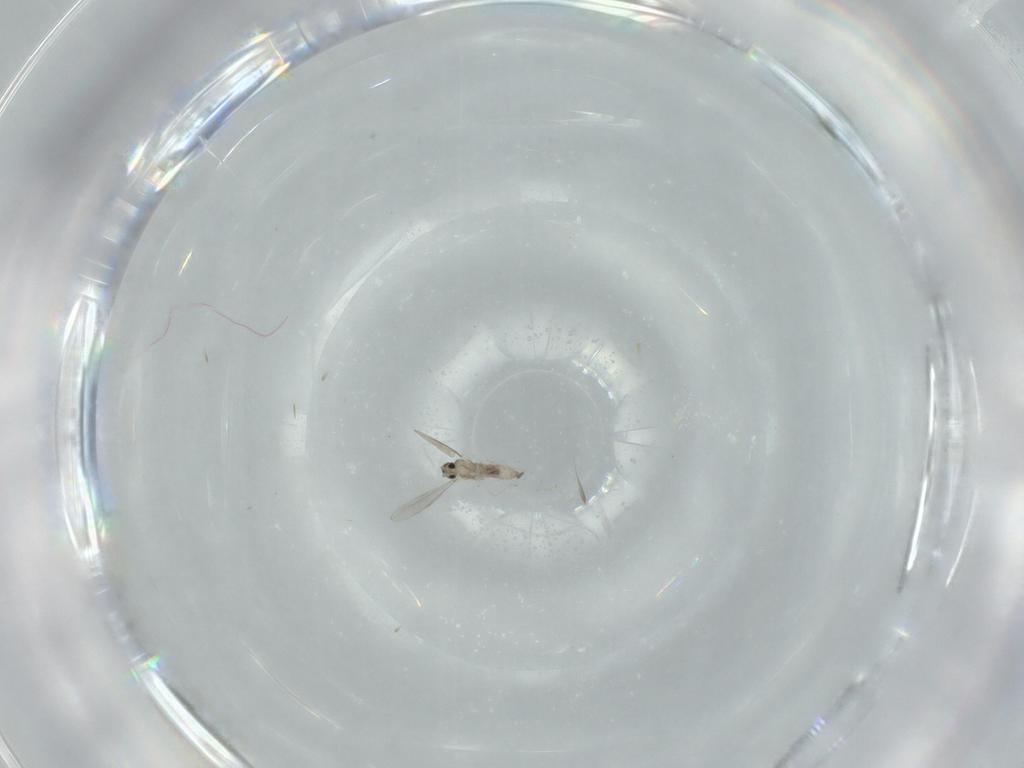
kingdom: Animalia
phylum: Arthropoda
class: Insecta
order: Diptera
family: Cecidomyiidae
